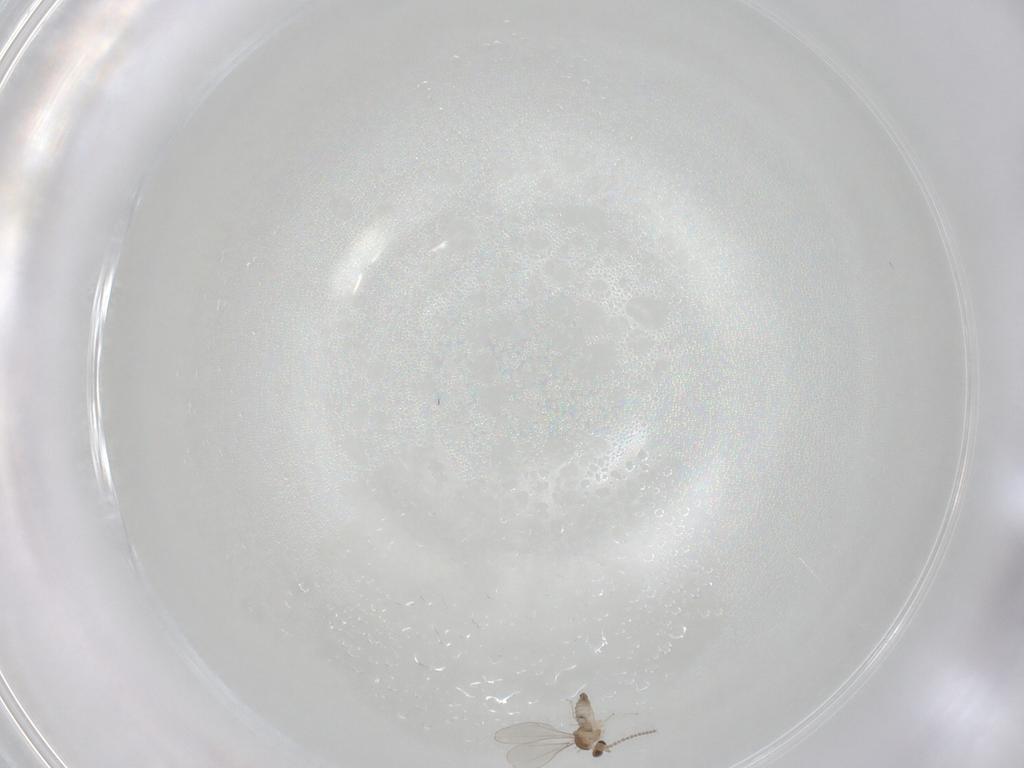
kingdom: Animalia
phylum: Arthropoda
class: Insecta
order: Diptera
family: Cecidomyiidae
